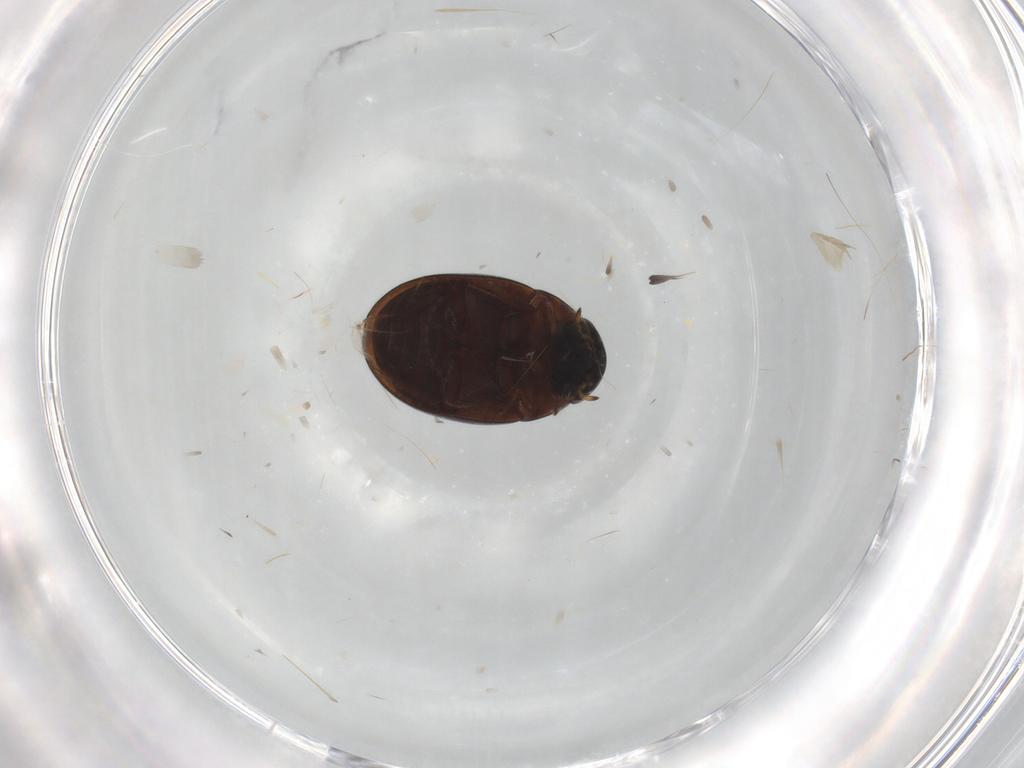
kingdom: Animalia
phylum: Arthropoda
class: Insecta
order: Coleoptera
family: Hydrophilidae
